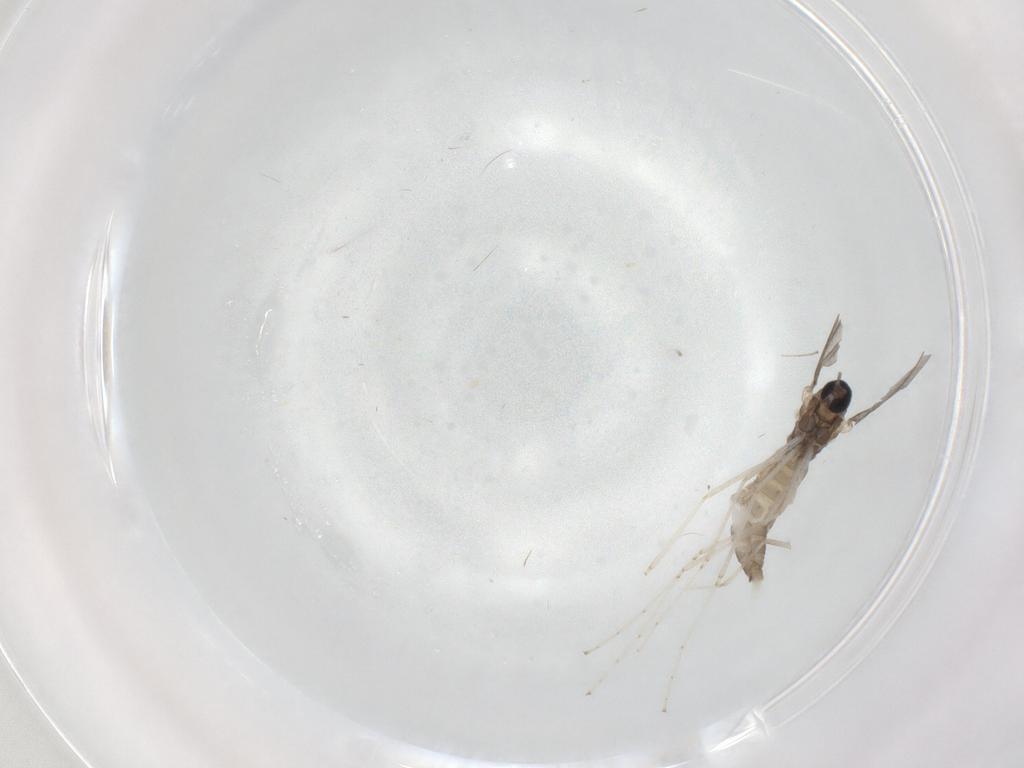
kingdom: Animalia
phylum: Arthropoda
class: Insecta
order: Diptera
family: Cecidomyiidae
